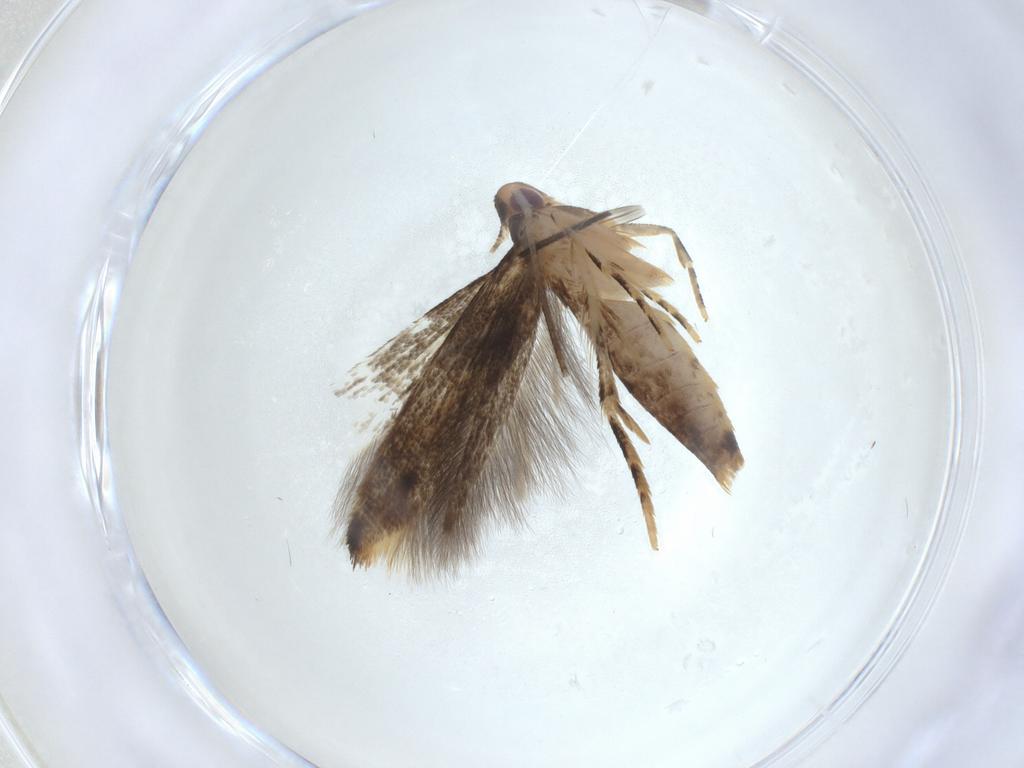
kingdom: Animalia
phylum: Arthropoda
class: Insecta
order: Lepidoptera
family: Momphidae
